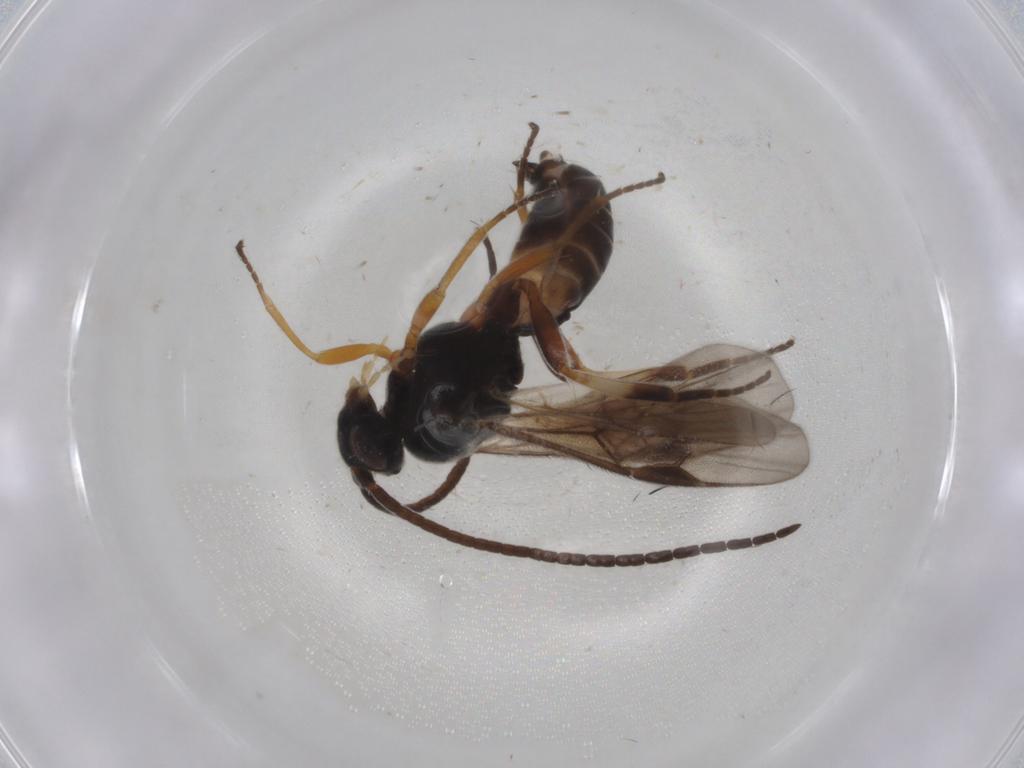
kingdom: Animalia
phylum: Arthropoda
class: Insecta
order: Hymenoptera
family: Braconidae
